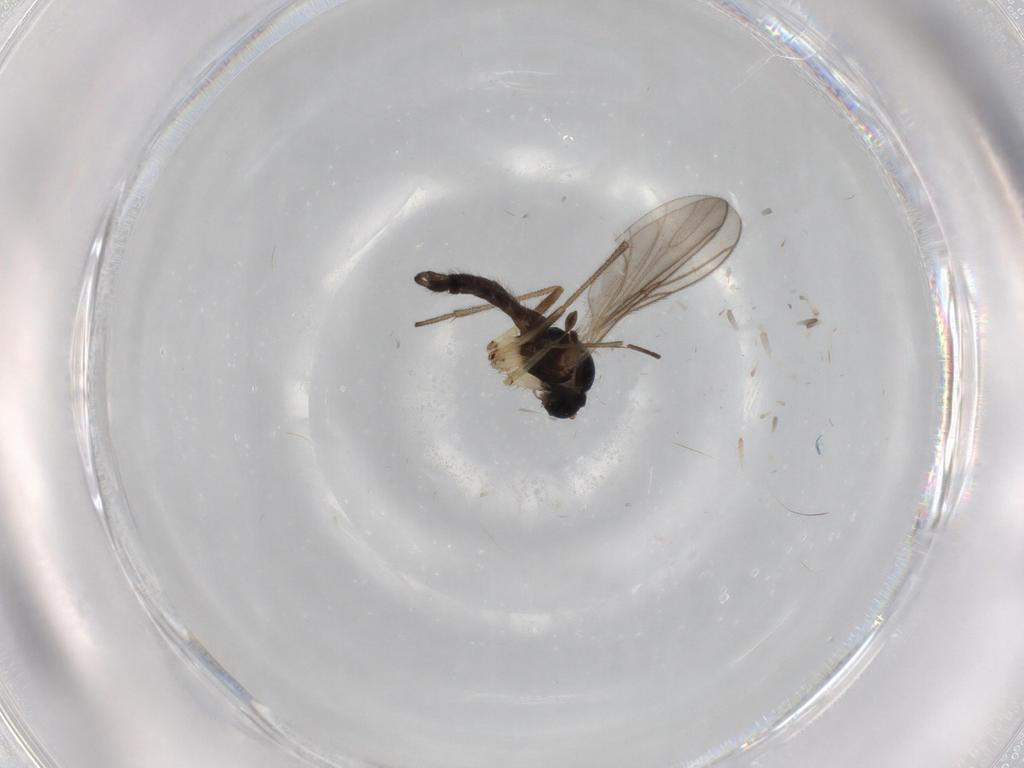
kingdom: Animalia
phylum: Arthropoda
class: Insecta
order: Diptera
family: Sciaridae
